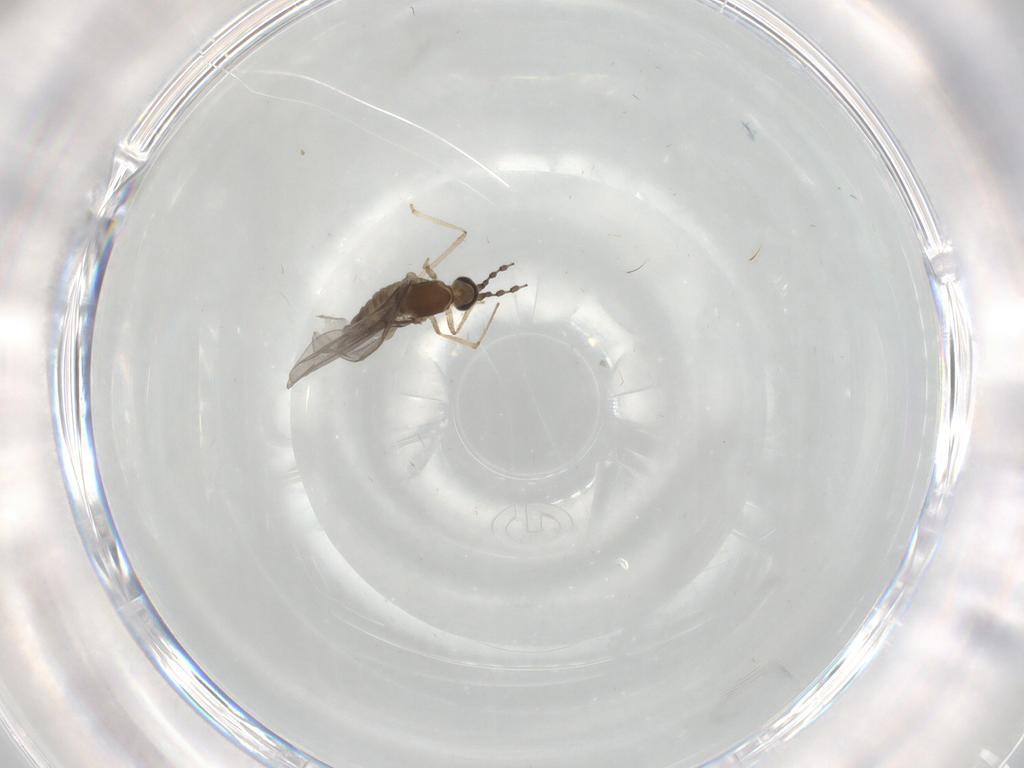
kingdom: Animalia
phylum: Arthropoda
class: Insecta
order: Diptera
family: Cecidomyiidae
